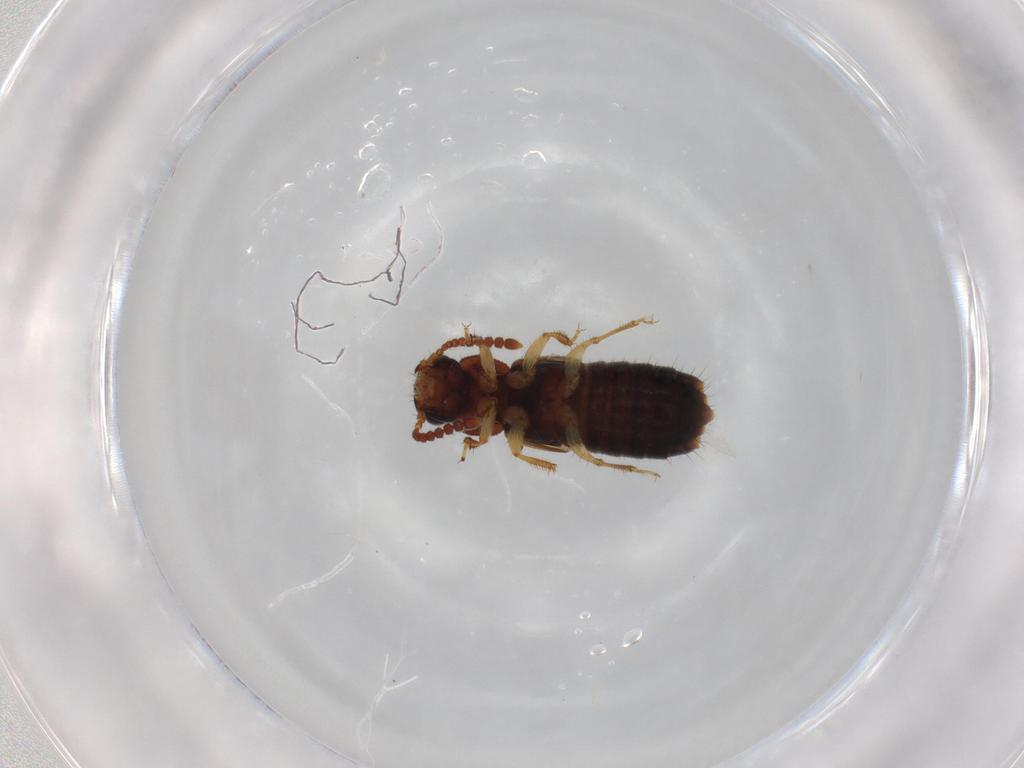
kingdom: Animalia
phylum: Arthropoda
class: Insecta
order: Coleoptera
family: Staphylinidae
